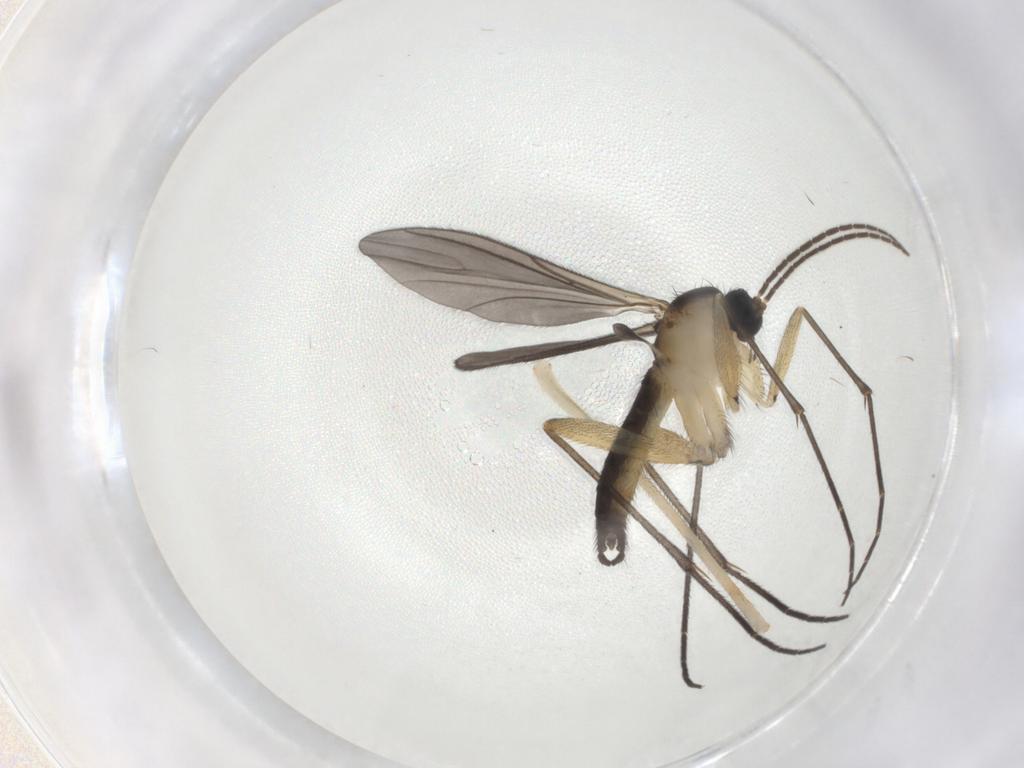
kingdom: Animalia
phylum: Arthropoda
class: Insecta
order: Diptera
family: Sciaridae
